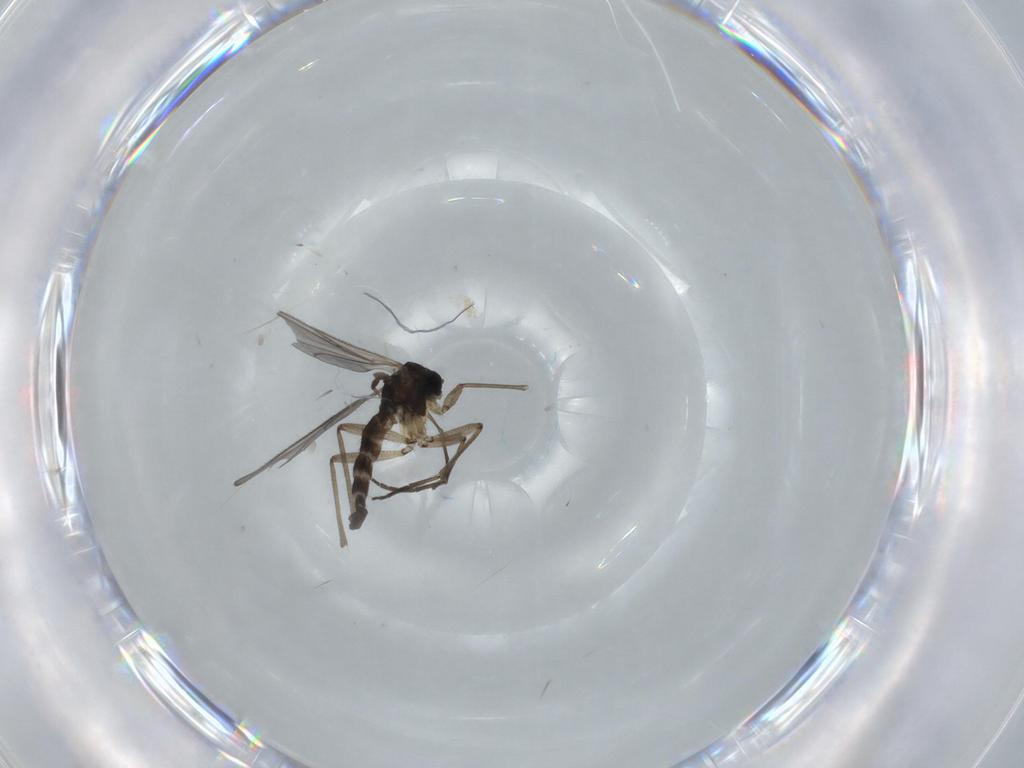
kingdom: Animalia
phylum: Arthropoda
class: Insecta
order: Diptera
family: Sciaridae
